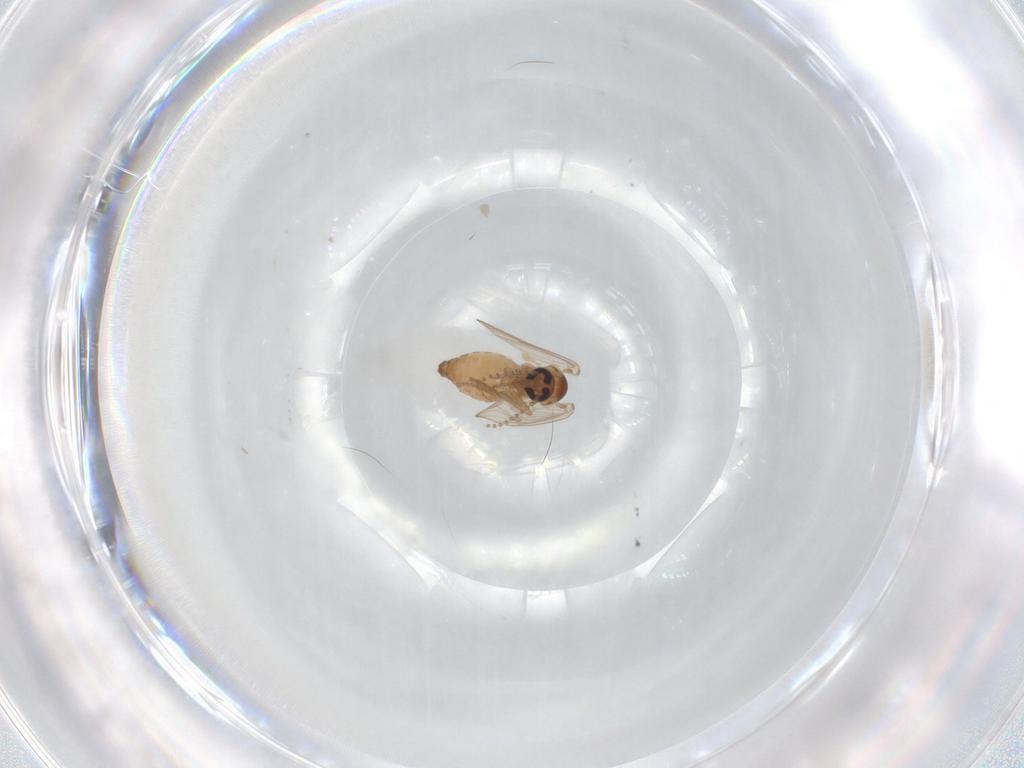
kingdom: Animalia
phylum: Arthropoda
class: Insecta
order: Diptera
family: Psychodidae
